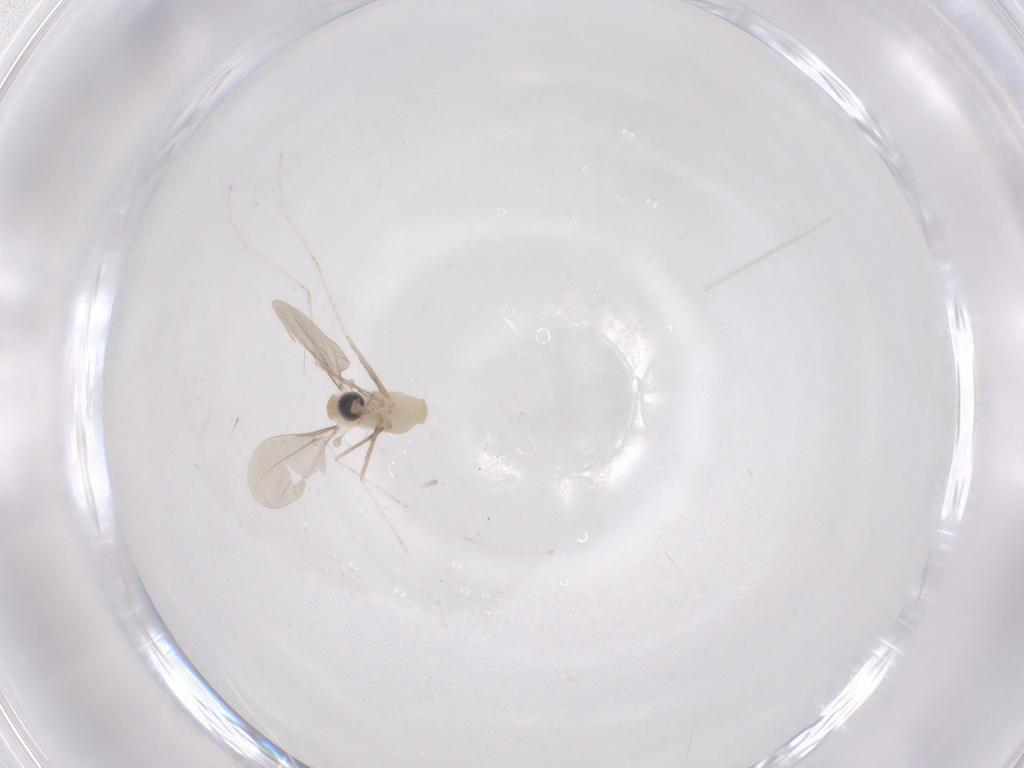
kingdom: Animalia
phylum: Arthropoda
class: Insecta
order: Diptera
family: Cecidomyiidae
